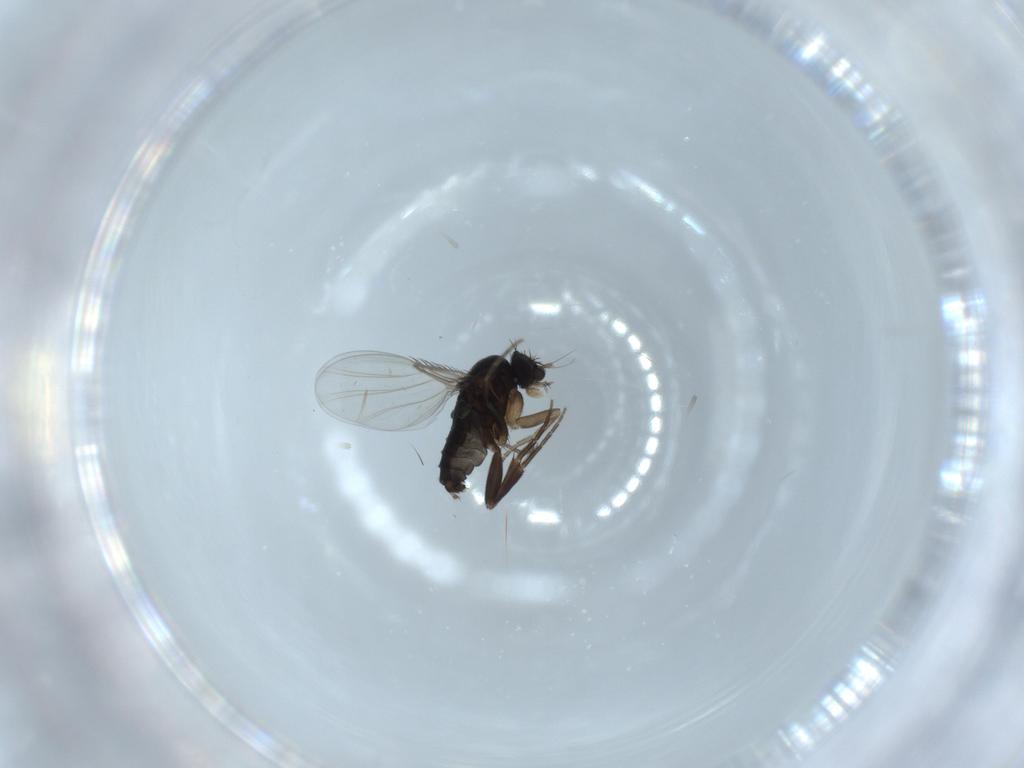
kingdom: Animalia
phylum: Arthropoda
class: Insecta
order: Diptera
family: Phoridae
